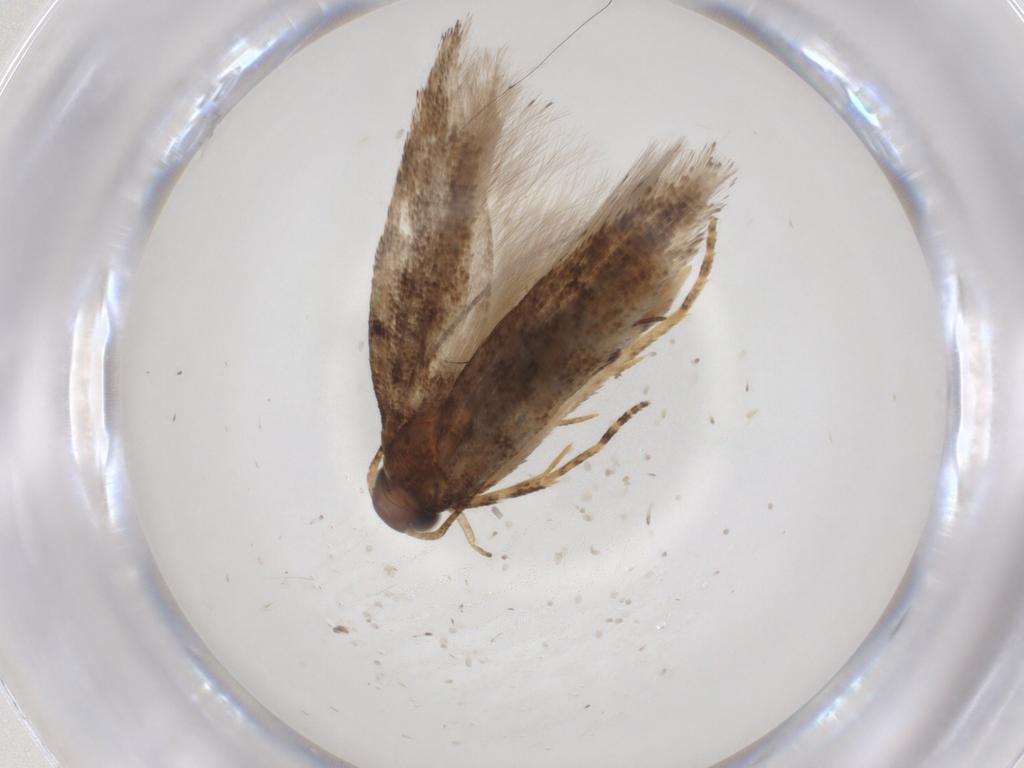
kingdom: Animalia
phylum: Arthropoda
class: Insecta
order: Lepidoptera
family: Gelechiidae
